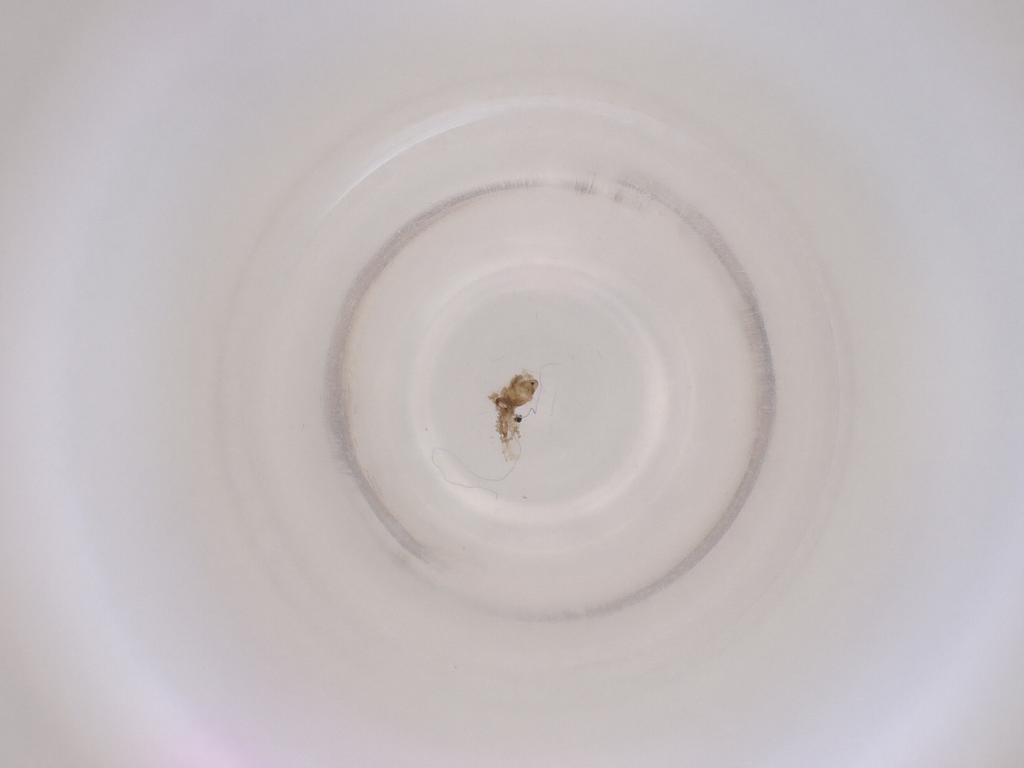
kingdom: Animalia
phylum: Arthropoda
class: Insecta
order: Diptera
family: Cecidomyiidae
